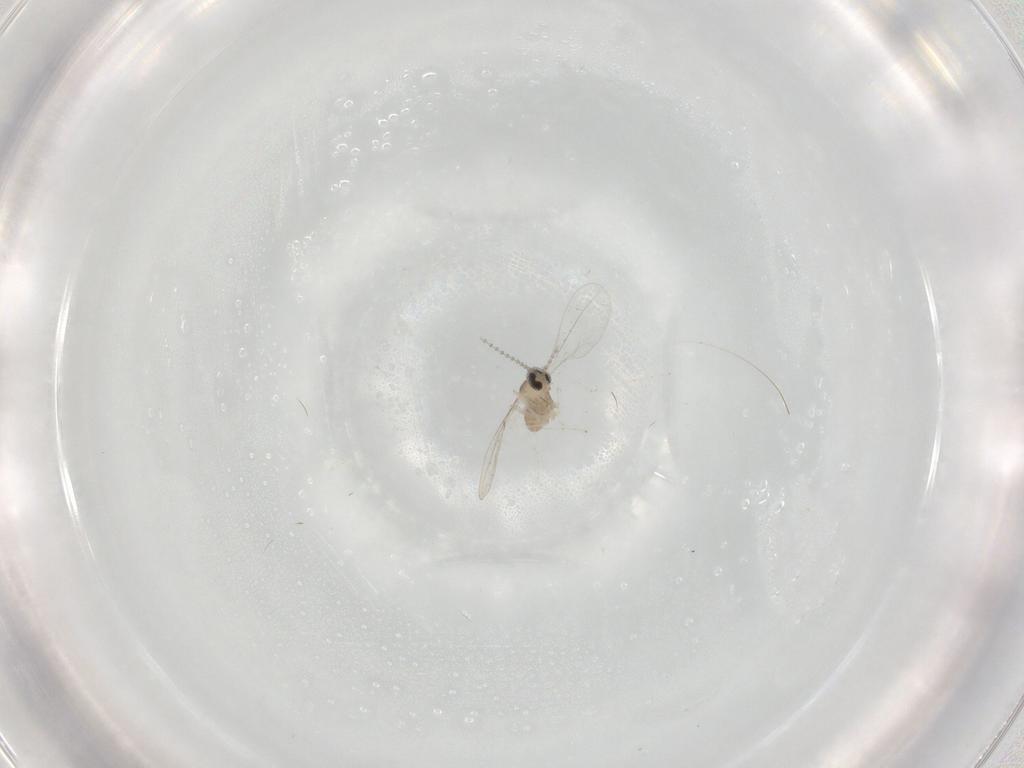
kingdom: Animalia
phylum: Arthropoda
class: Insecta
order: Diptera
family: Cecidomyiidae
